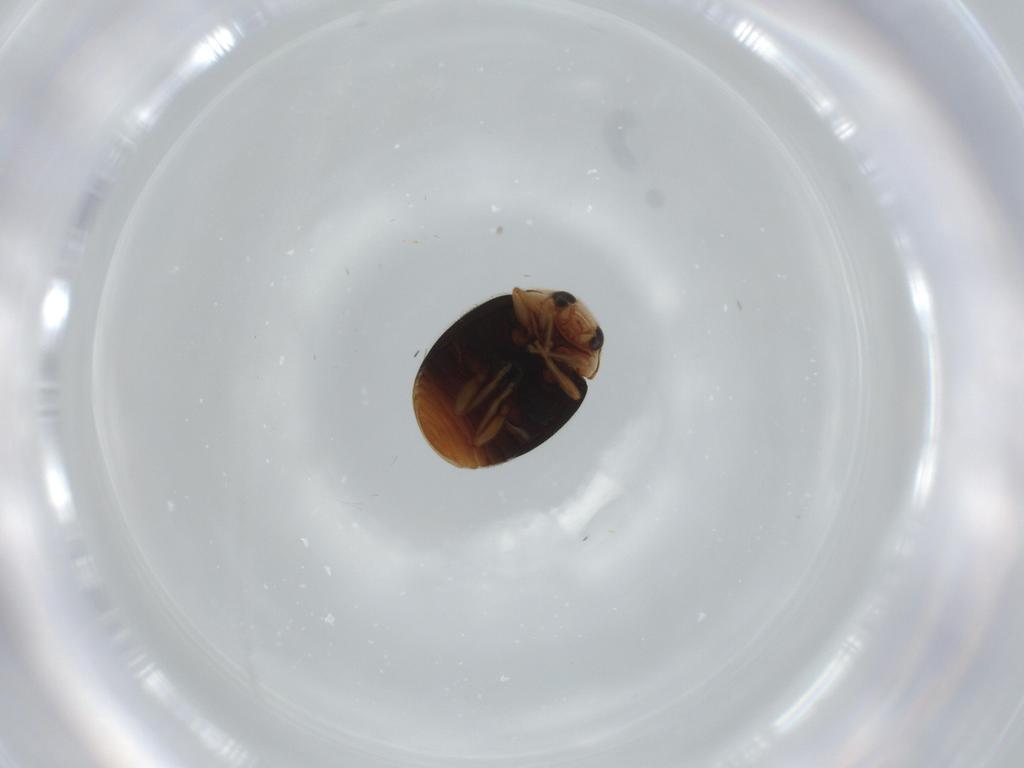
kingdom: Animalia
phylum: Arthropoda
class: Insecta
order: Coleoptera
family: Coccinellidae
